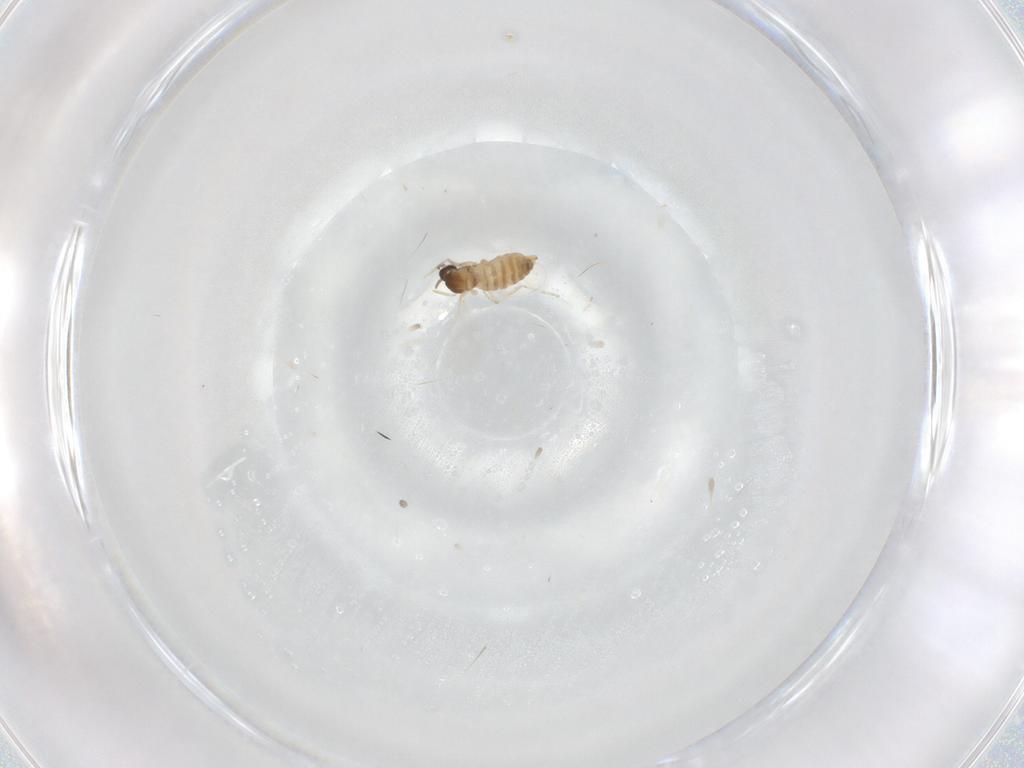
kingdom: Animalia
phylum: Arthropoda
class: Insecta
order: Diptera
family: Cecidomyiidae
